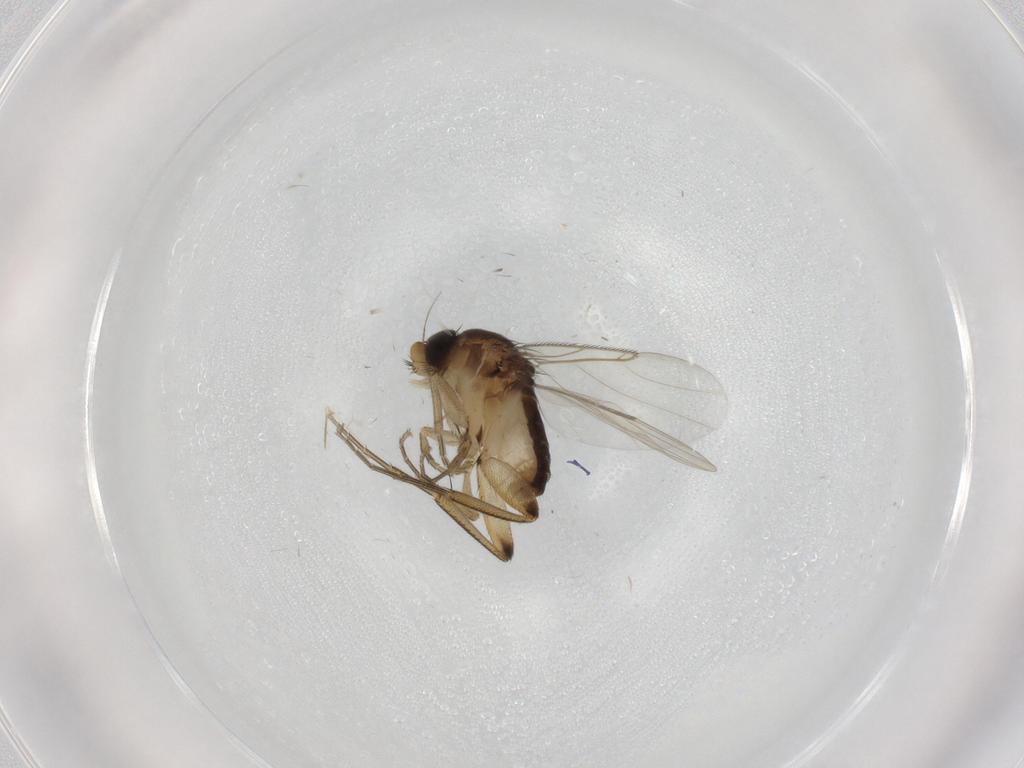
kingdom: Animalia
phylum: Arthropoda
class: Insecta
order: Diptera
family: Phoridae
